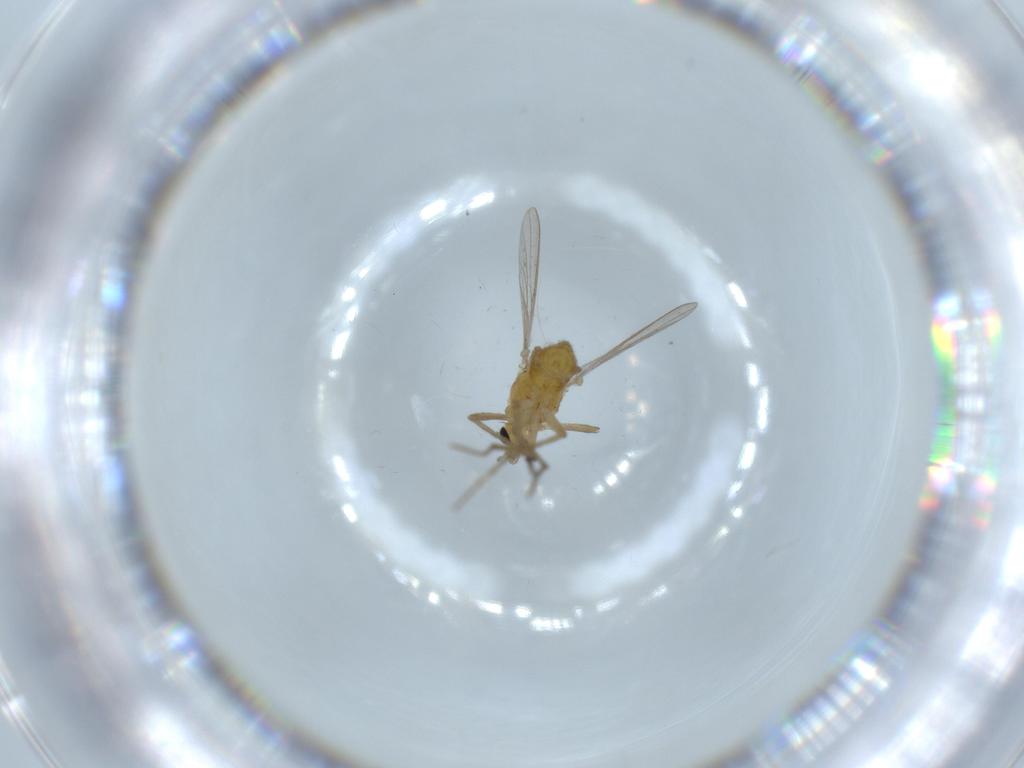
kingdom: Animalia
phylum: Arthropoda
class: Insecta
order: Diptera
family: Chironomidae
